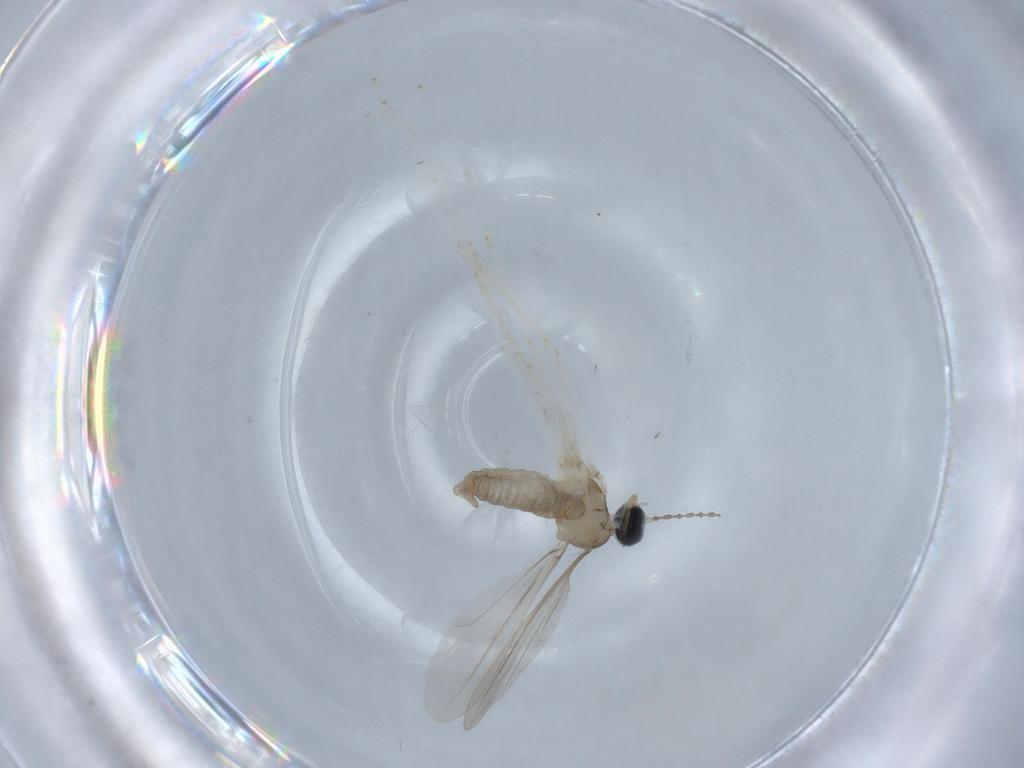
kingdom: Animalia
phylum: Arthropoda
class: Insecta
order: Diptera
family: Cecidomyiidae
